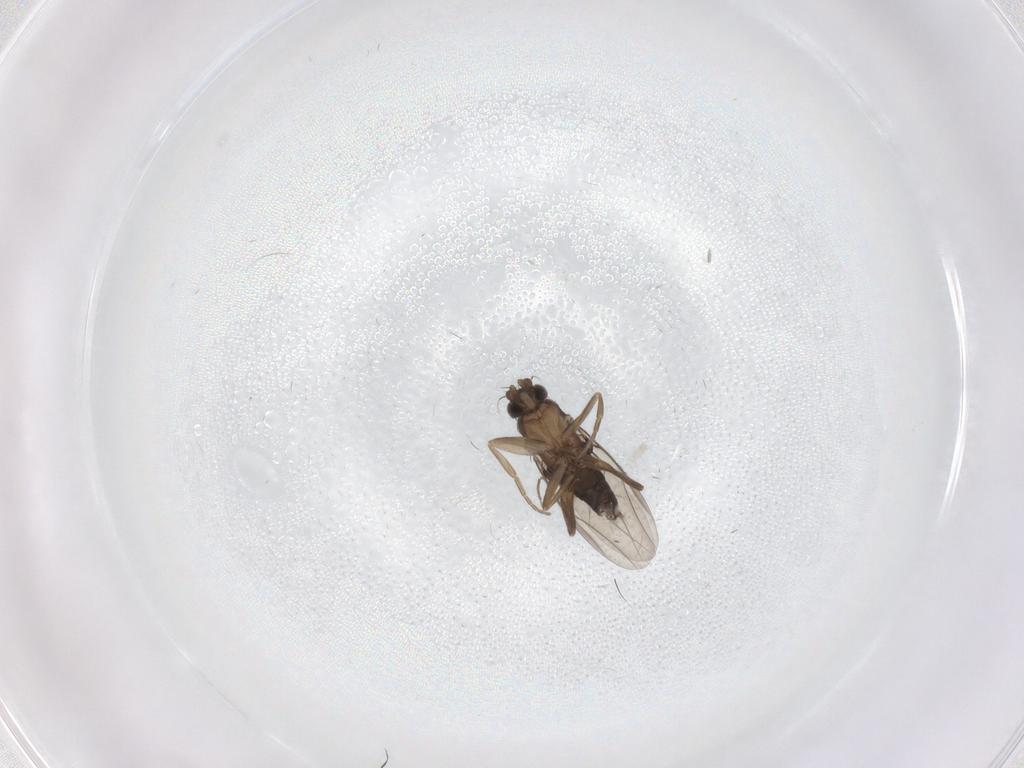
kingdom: Animalia
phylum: Arthropoda
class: Insecta
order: Diptera
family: Phoridae
